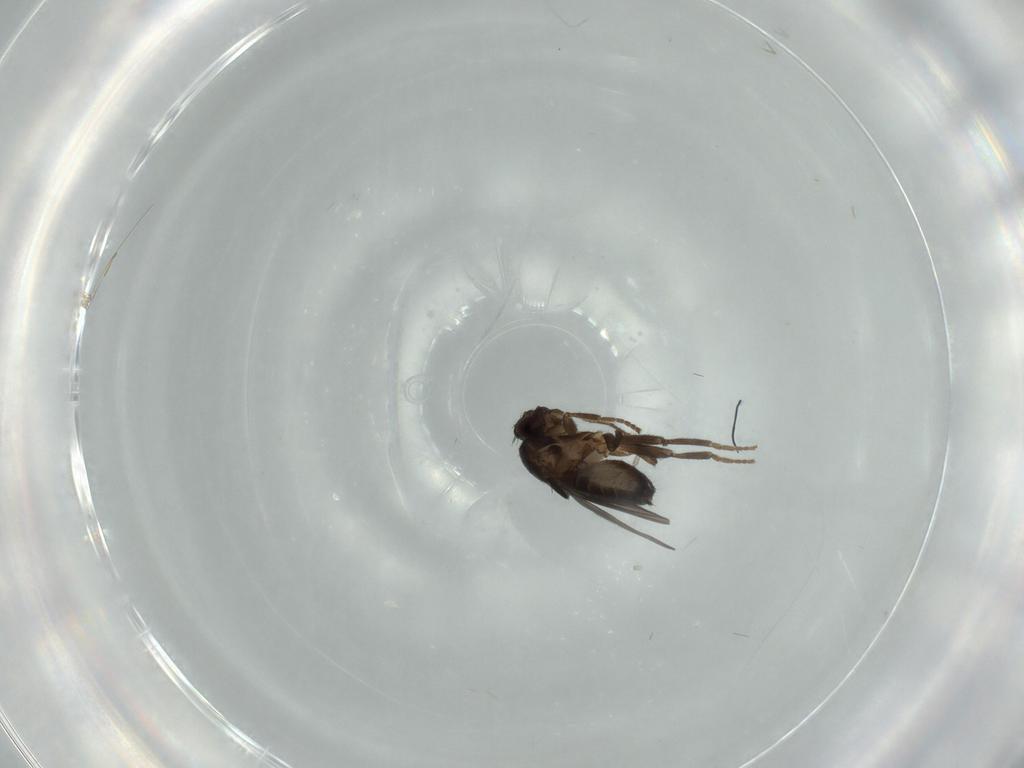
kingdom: Animalia
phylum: Arthropoda
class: Insecta
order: Diptera
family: Sphaeroceridae
